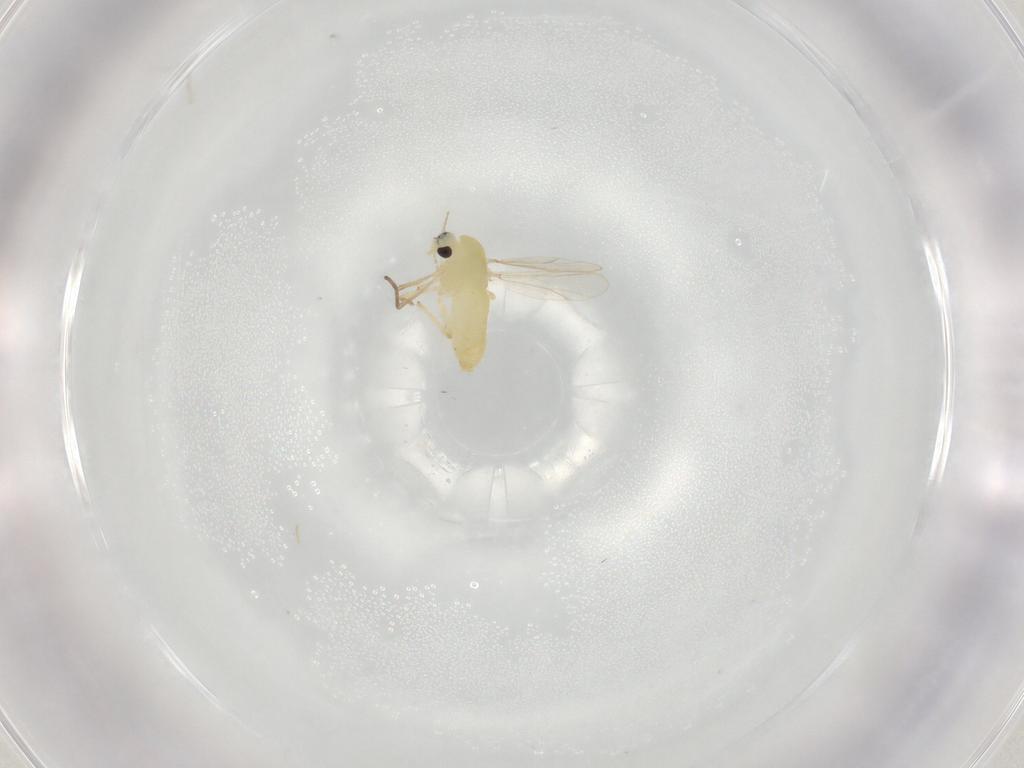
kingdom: Animalia
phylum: Arthropoda
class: Insecta
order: Diptera
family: Chironomidae
